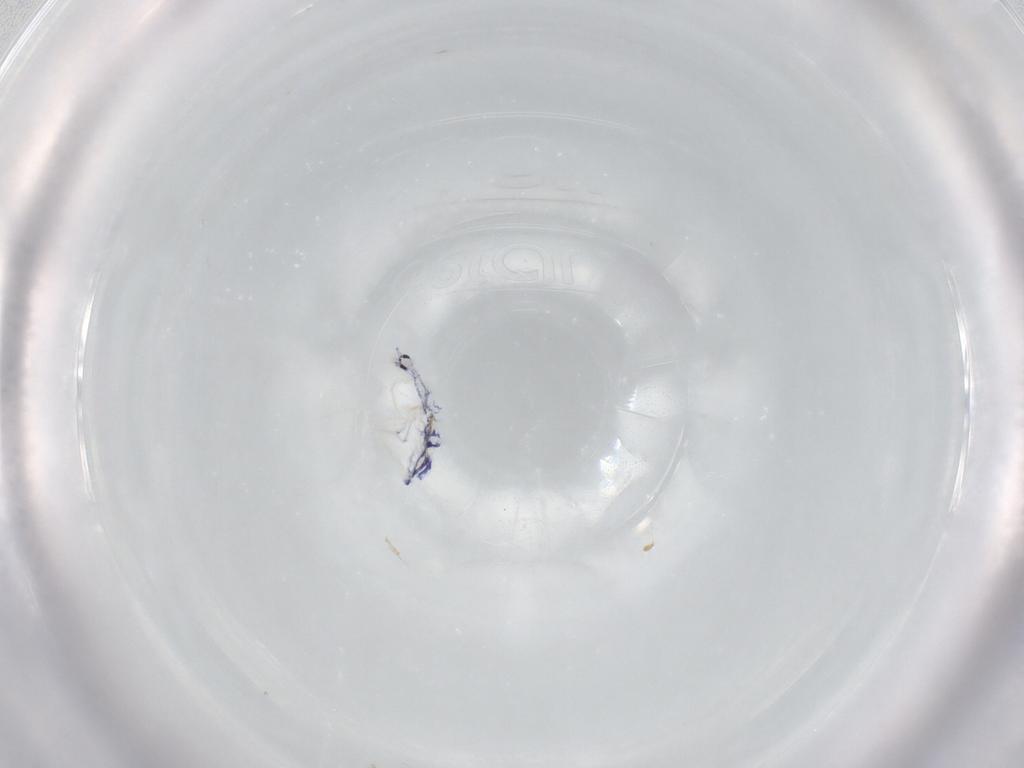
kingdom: Animalia
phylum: Arthropoda
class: Collembola
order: Entomobryomorpha
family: Entomobryidae
